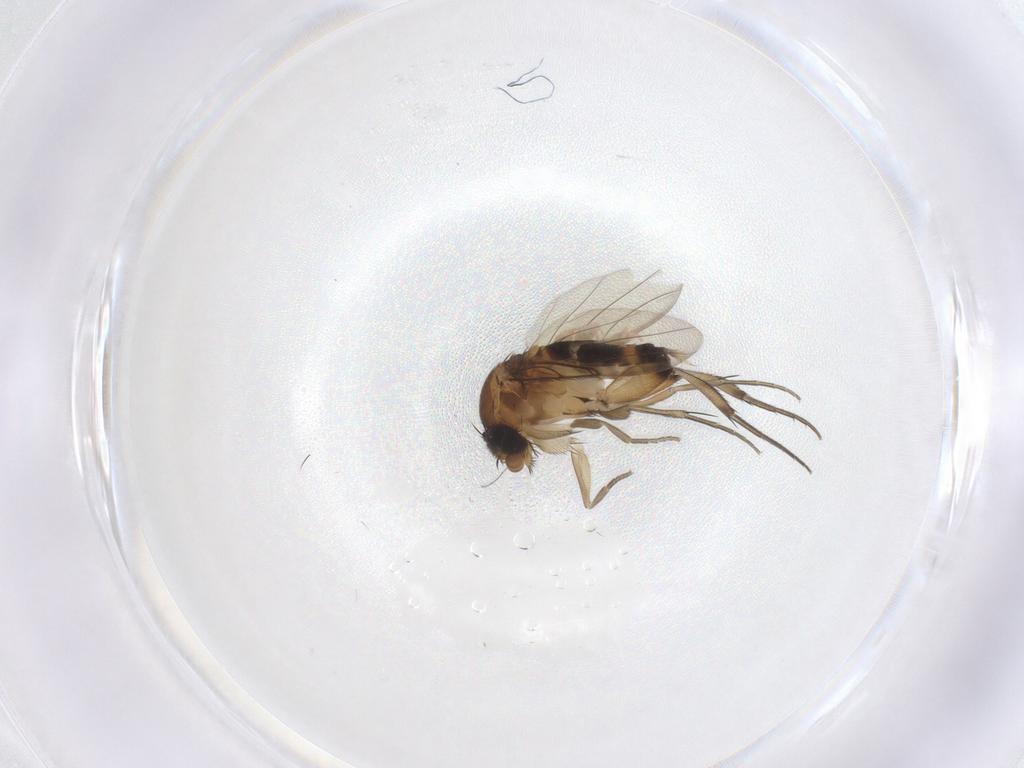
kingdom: Animalia
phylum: Arthropoda
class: Insecta
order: Diptera
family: Phoridae
